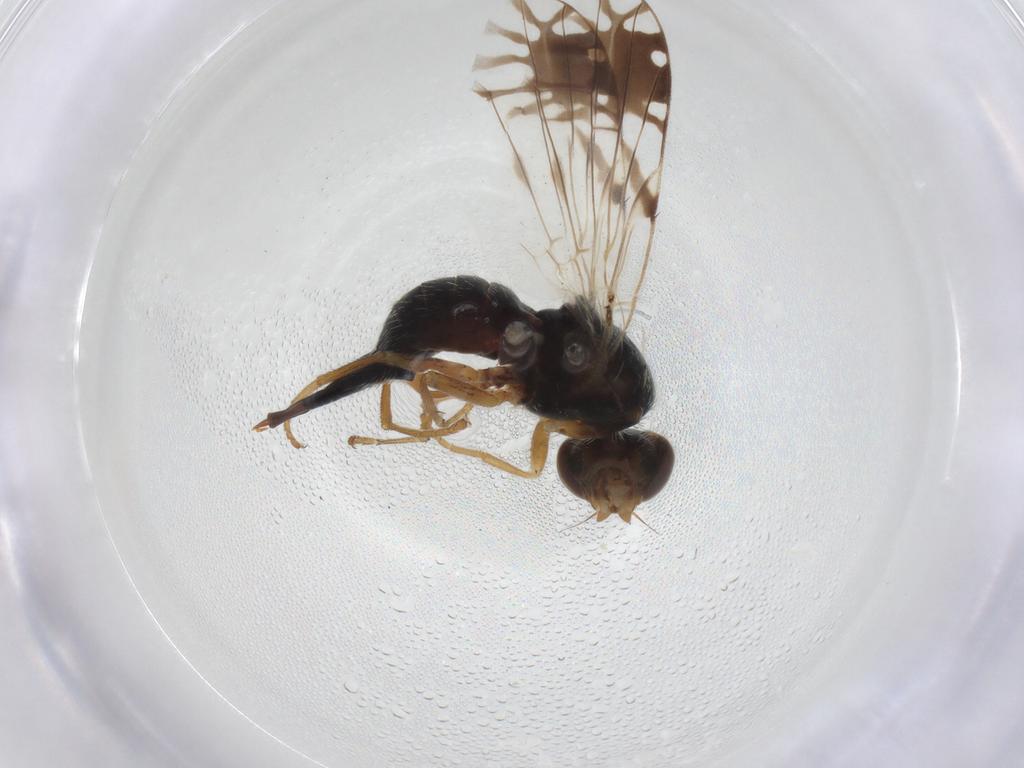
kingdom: Animalia
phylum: Arthropoda
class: Insecta
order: Diptera
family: Tephritidae
